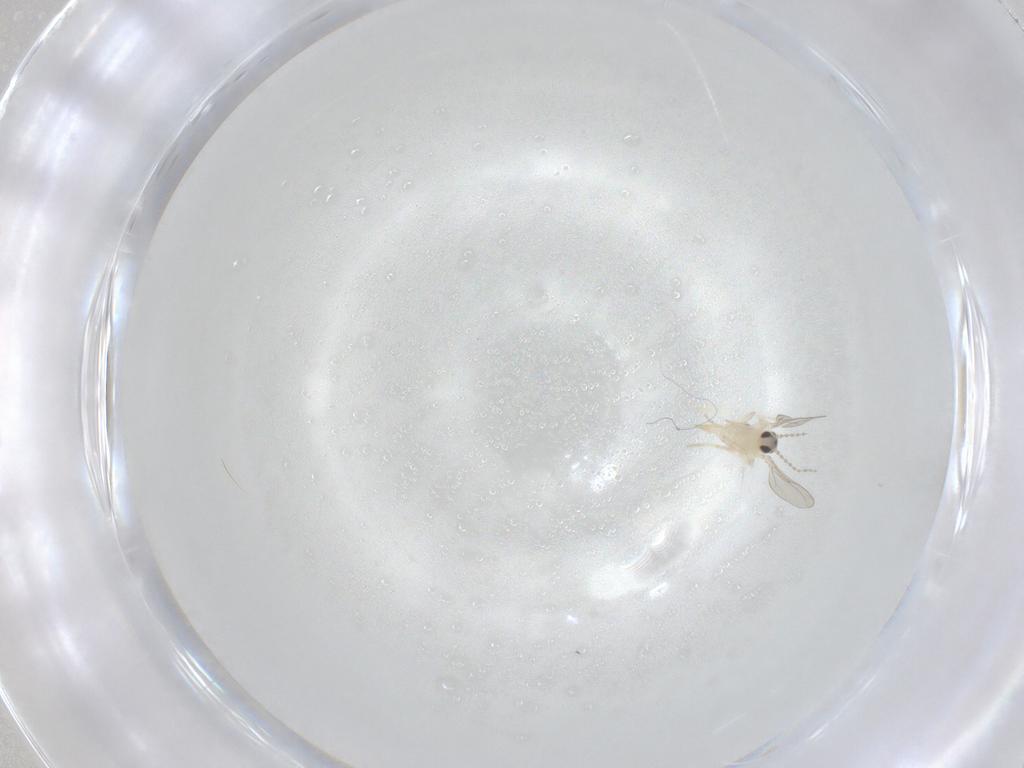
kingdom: Animalia
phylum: Arthropoda
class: Insecta
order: Diptera
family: Cecidomyiidae
